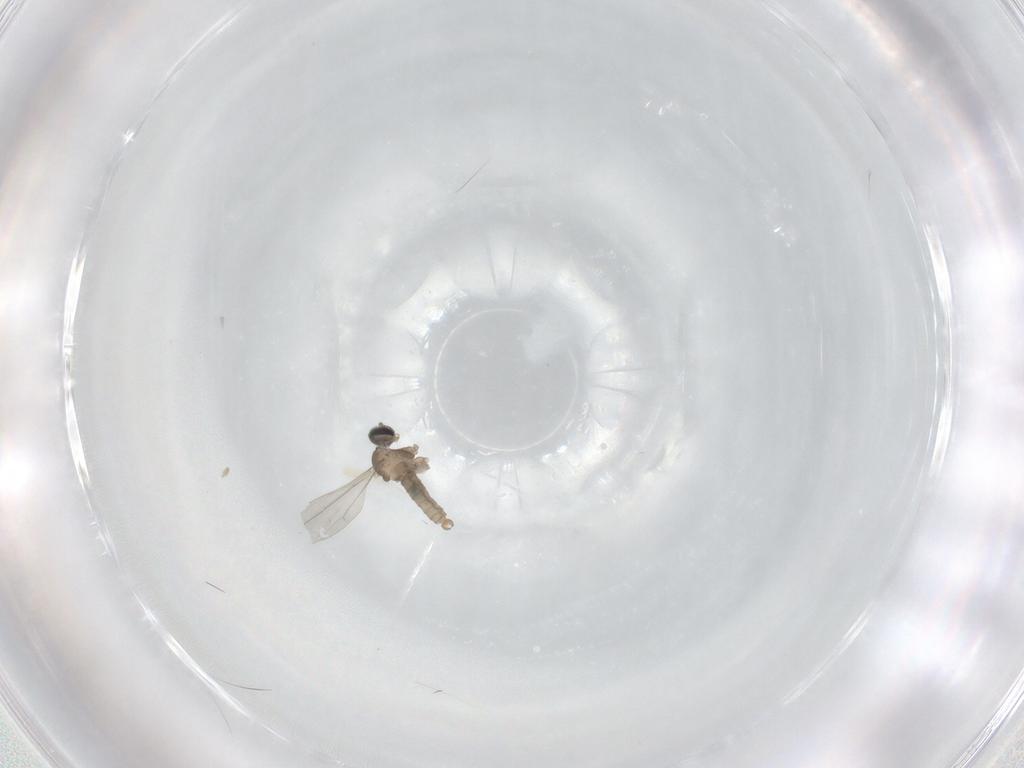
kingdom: Animalia
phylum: Arthropoda
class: Insecta
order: Diptera
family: Cecidomyiidae
